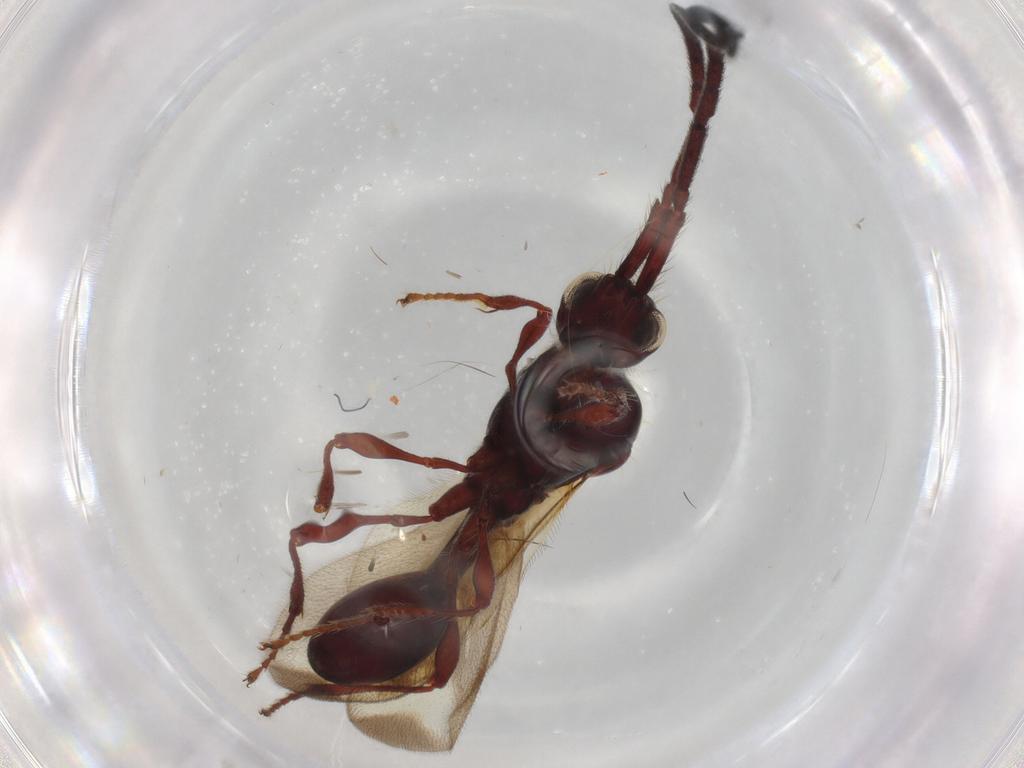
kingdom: Animalia
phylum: Arthropoda
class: Insecta
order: Hymenoptera
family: Diapriidae
